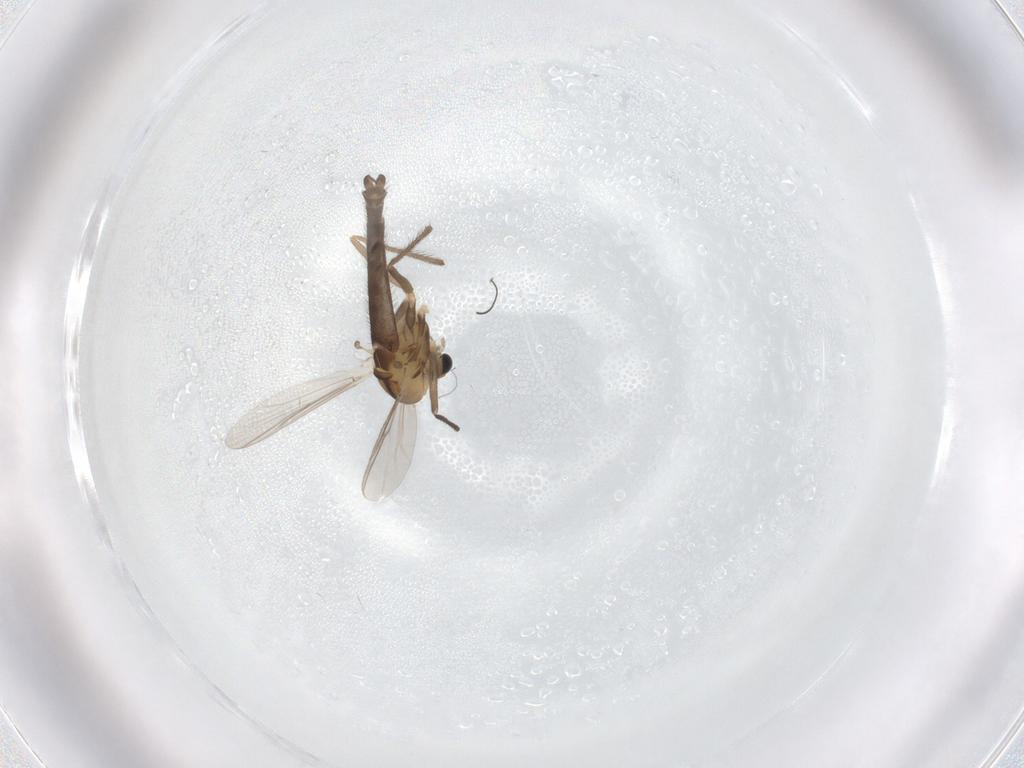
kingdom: Animalia
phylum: Arthropoda
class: Insecta
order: Diptera
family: Chironomidae
